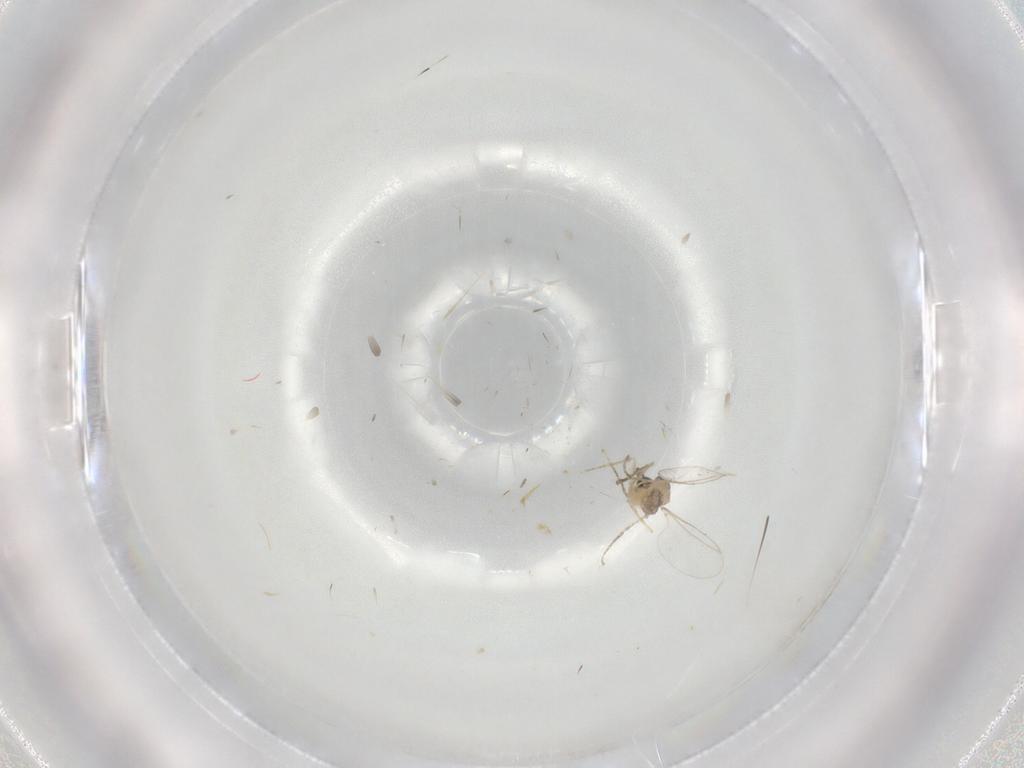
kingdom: Animalia
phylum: Arthropoda
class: Insecta
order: Diptera
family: Cecidomyiidae
